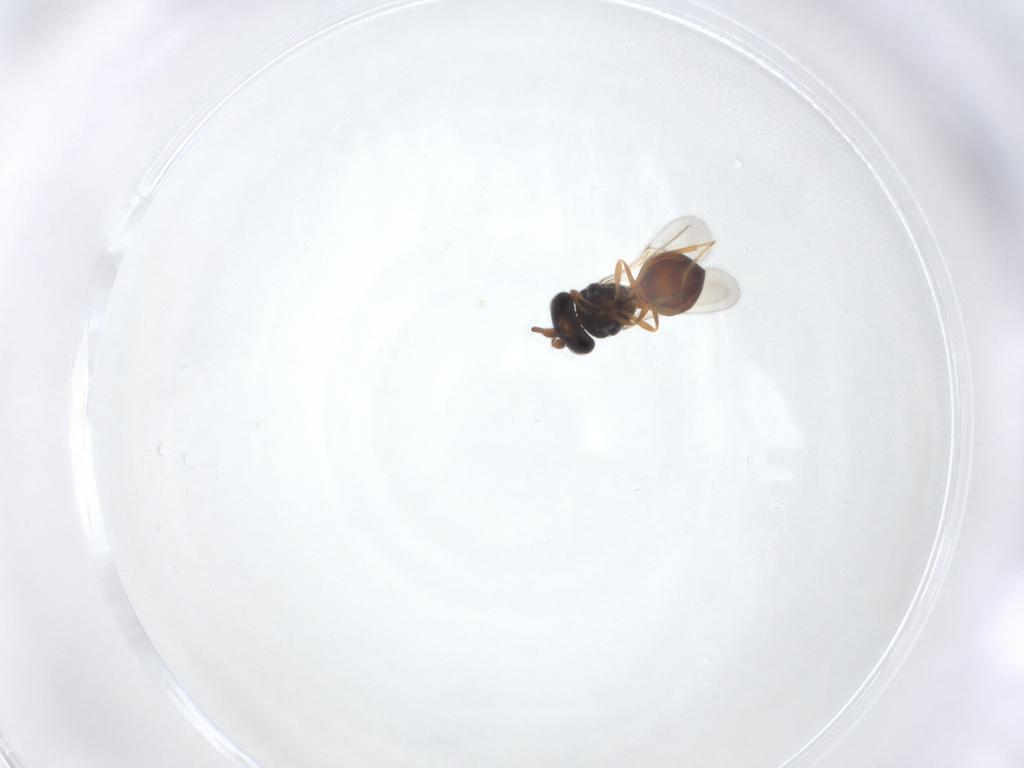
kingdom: Animalia
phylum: Arthropoda
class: Arachnida
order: Araneae
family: Pholcidae
